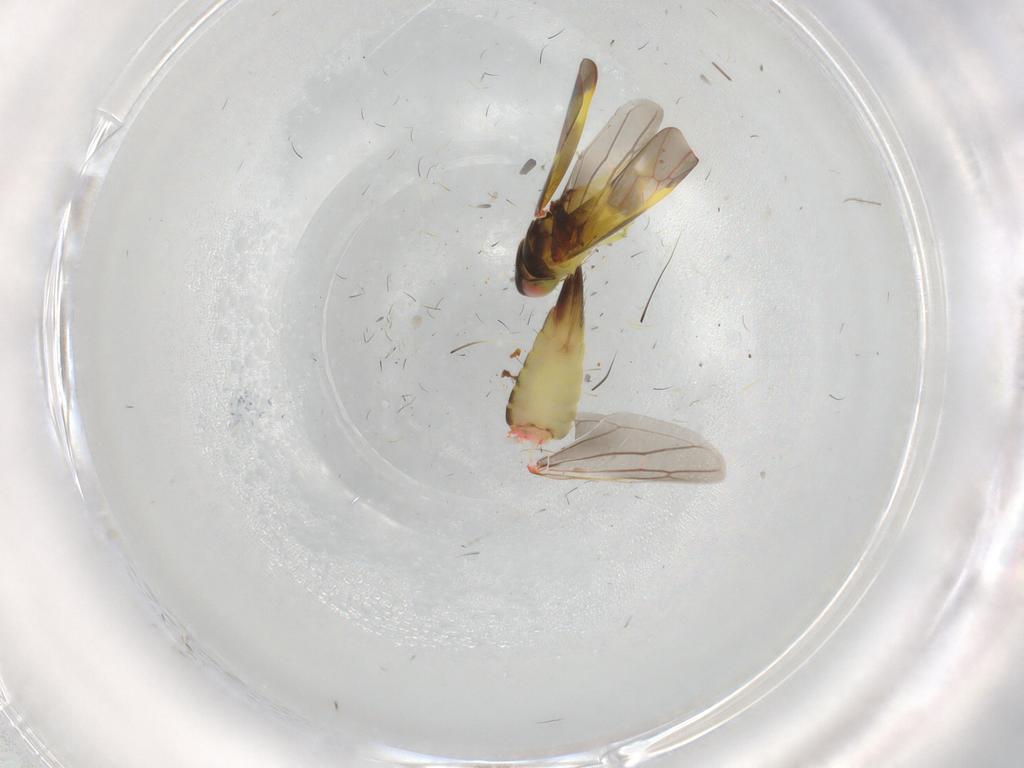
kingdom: Animalia
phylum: Arthropoda
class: Insecta
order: Hemiptera
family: Cicadellidae
